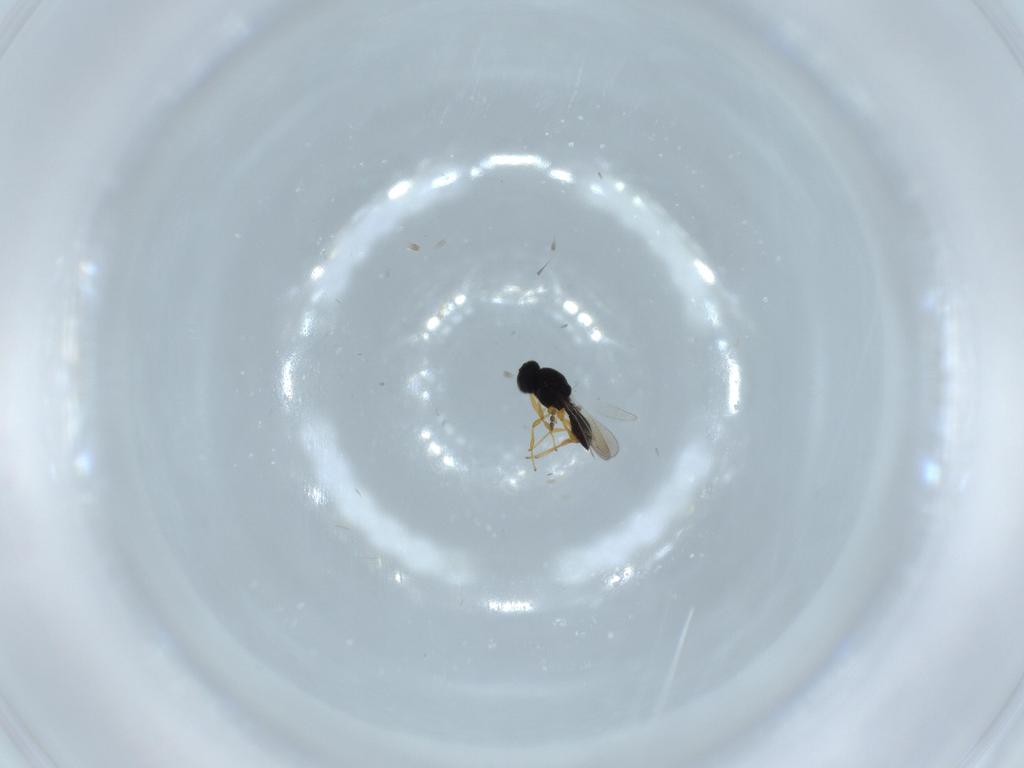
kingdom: Animalia
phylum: Arthropoda
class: Insecta
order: Hymenoptera
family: Platygastridae
